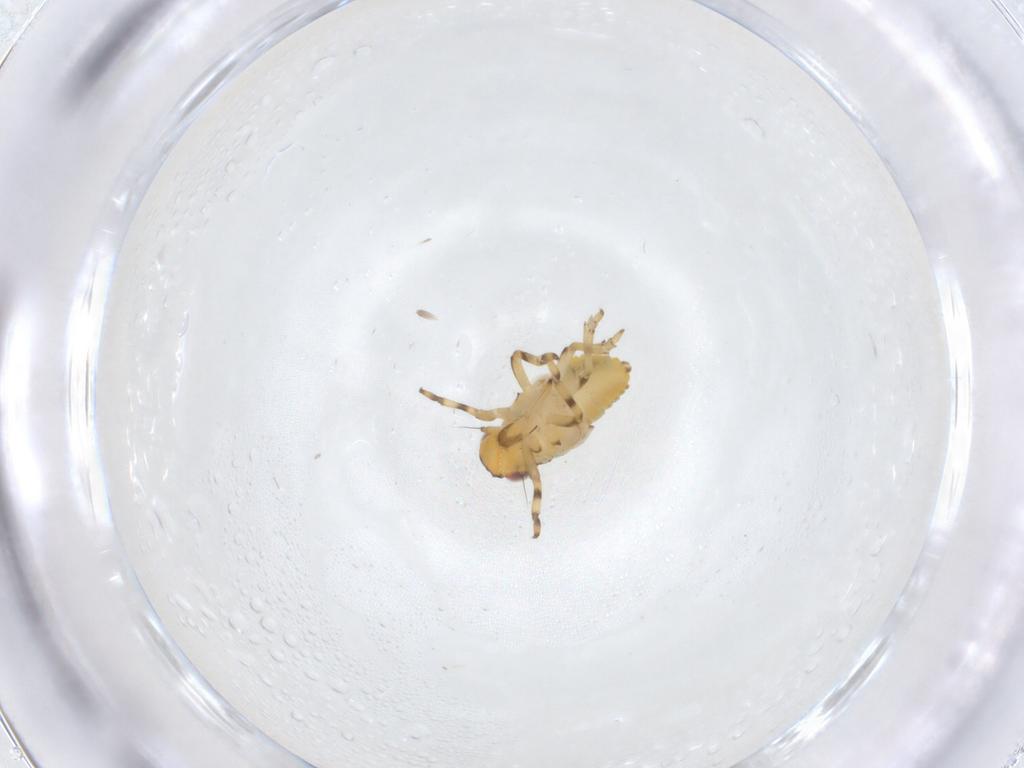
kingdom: Animalia
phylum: Arthropoda
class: Insecta
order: Hemiptera
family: Issidae
